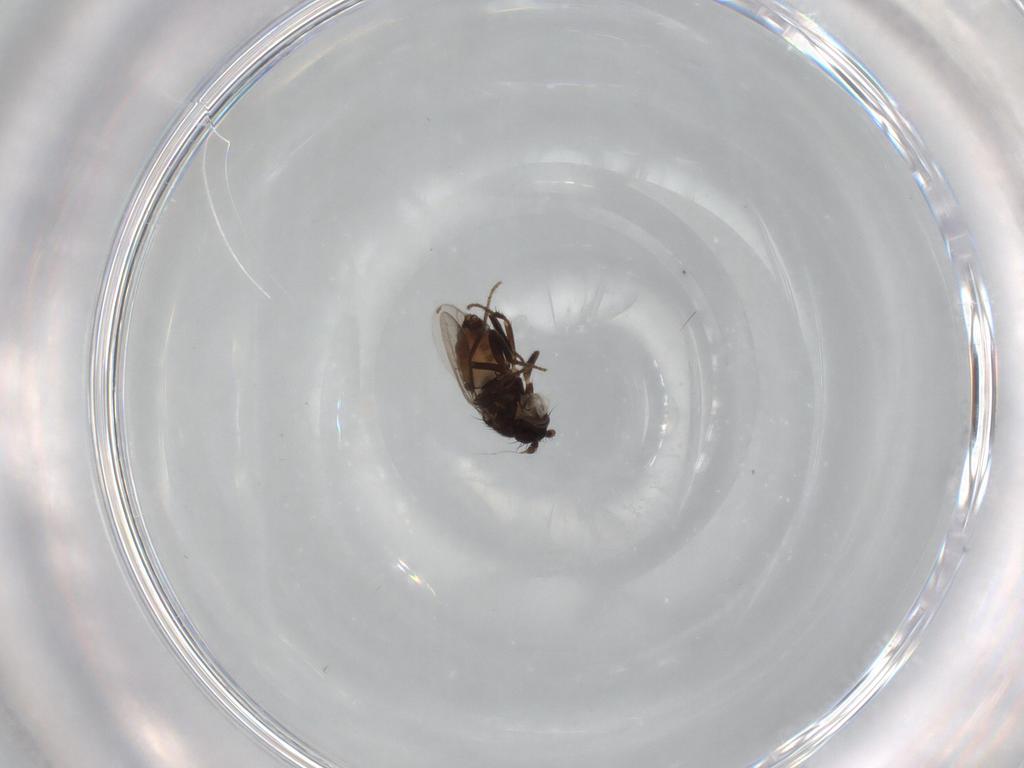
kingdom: Animalia
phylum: Arthropoda
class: Insecta
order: Diptera
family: Sphaeroceridae
